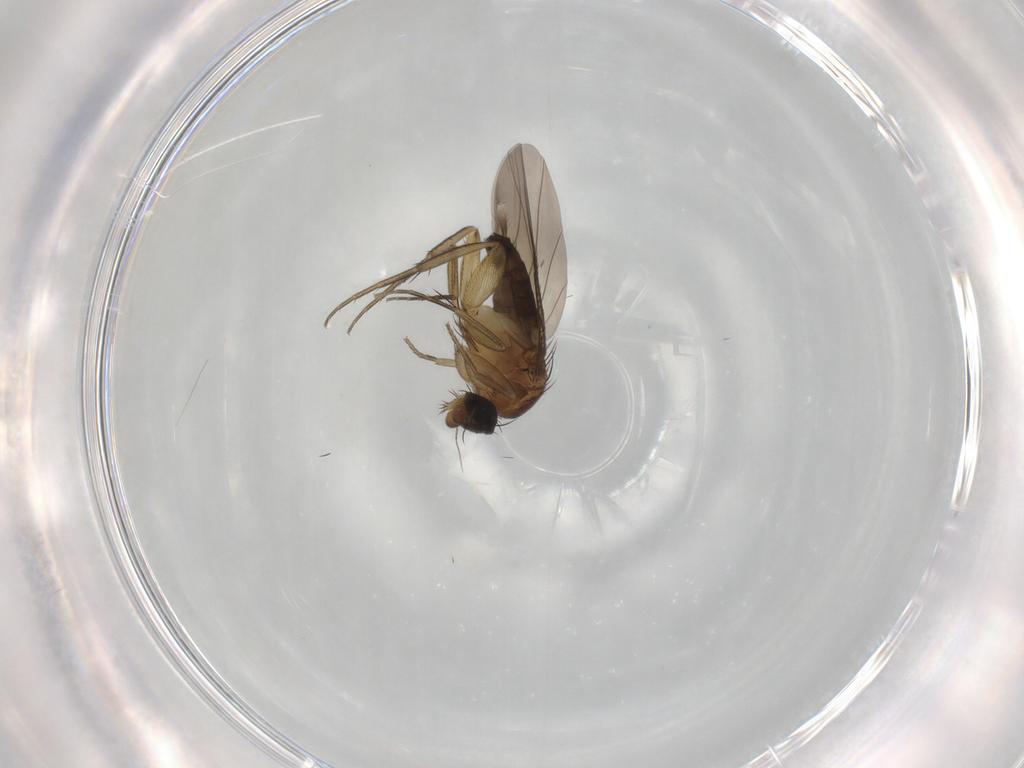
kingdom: Animalia
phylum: Arthropoda
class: Insecta
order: Diptera
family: Phoridae
